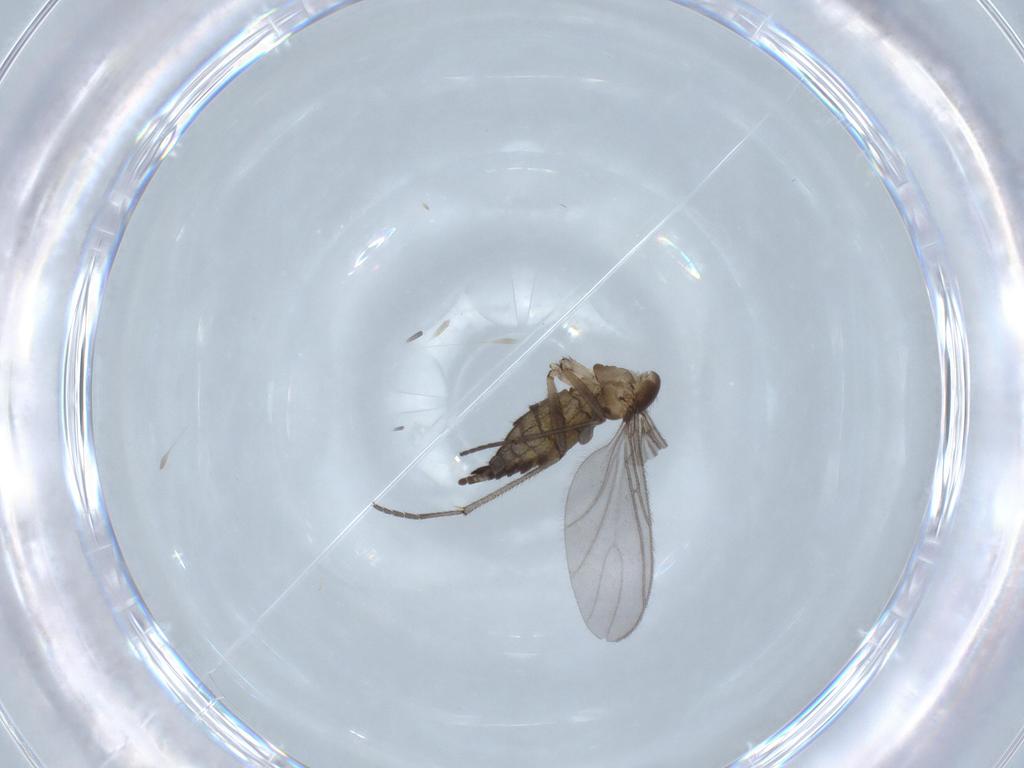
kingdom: Animalia
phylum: Arthropoda
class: Insecta
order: Diptera
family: Sciaridae
